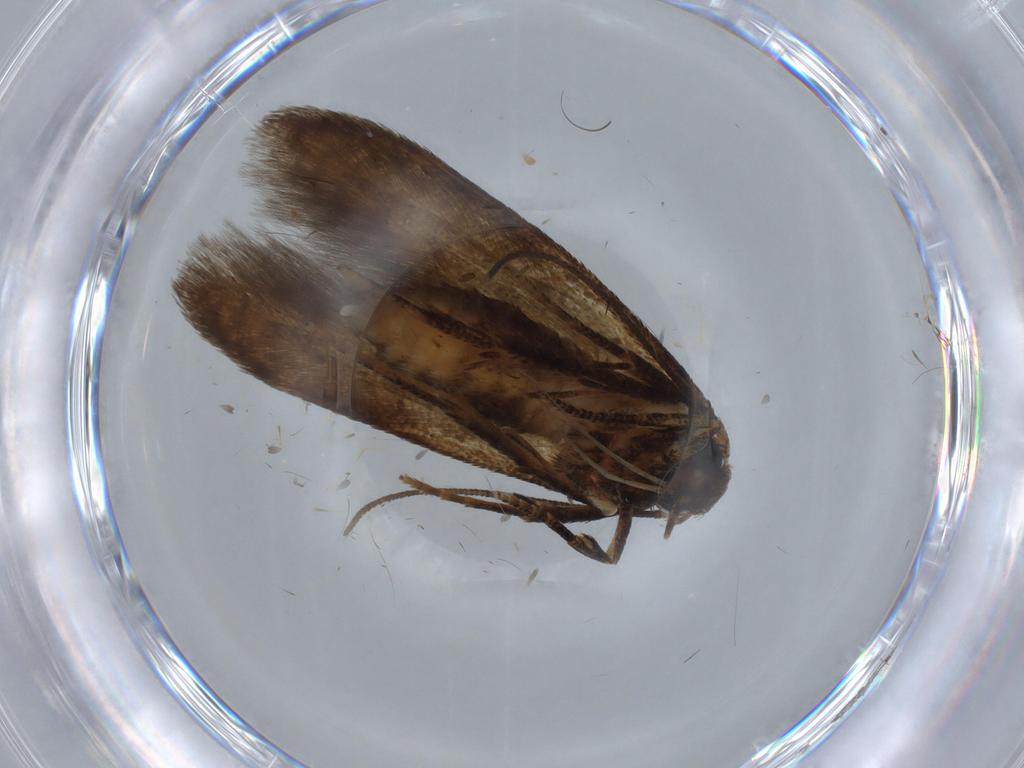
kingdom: Animalia
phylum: Arthropoda
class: Insecta
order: Lepidoptera
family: Blastobasidae
